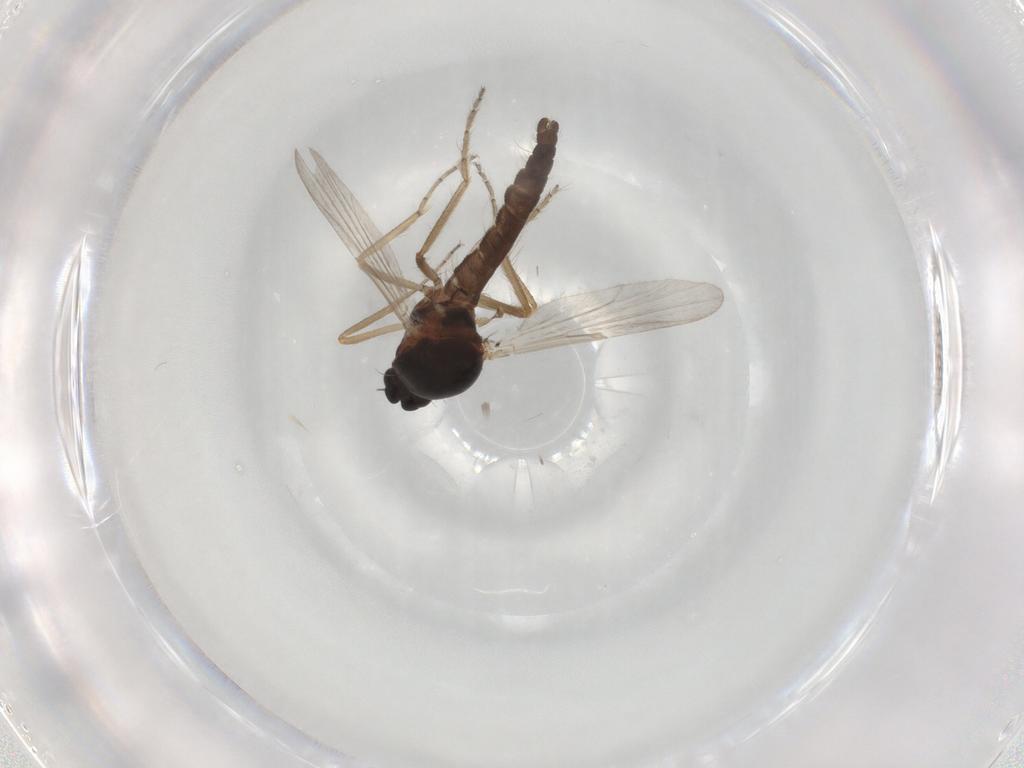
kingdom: Animalia
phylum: Arthropoda
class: Insecta
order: Diptera
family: Ceratopogonidae
